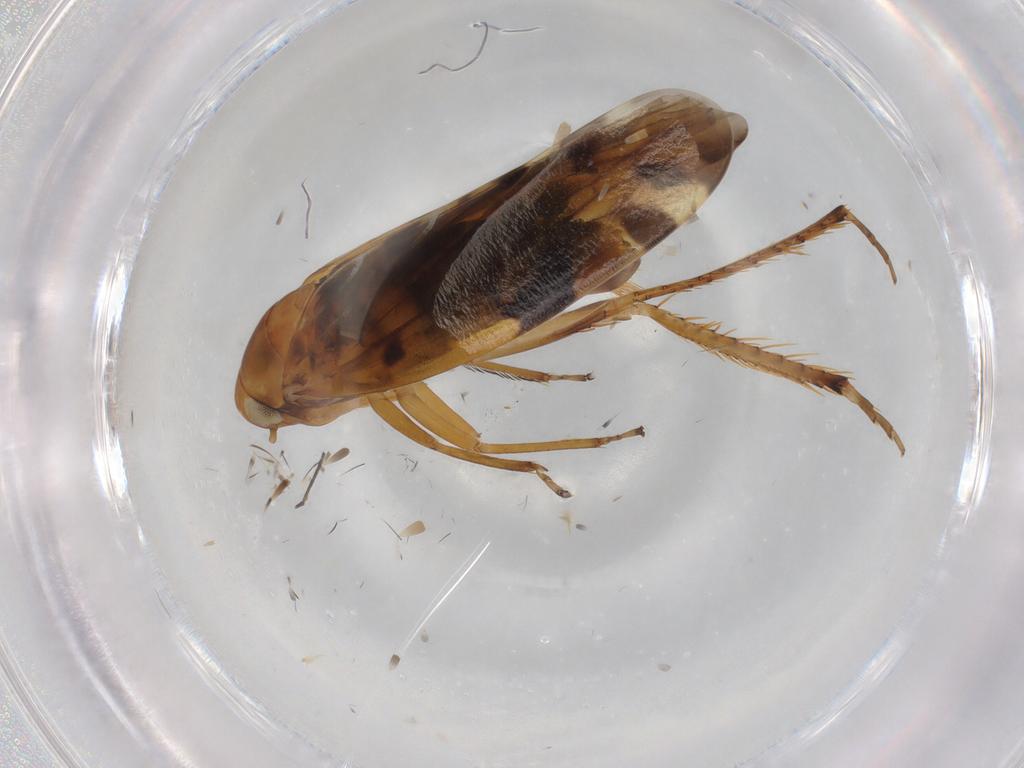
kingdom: Animalia
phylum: Arthropoda
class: Insecta
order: Hemiptera
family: Cicadellidae
